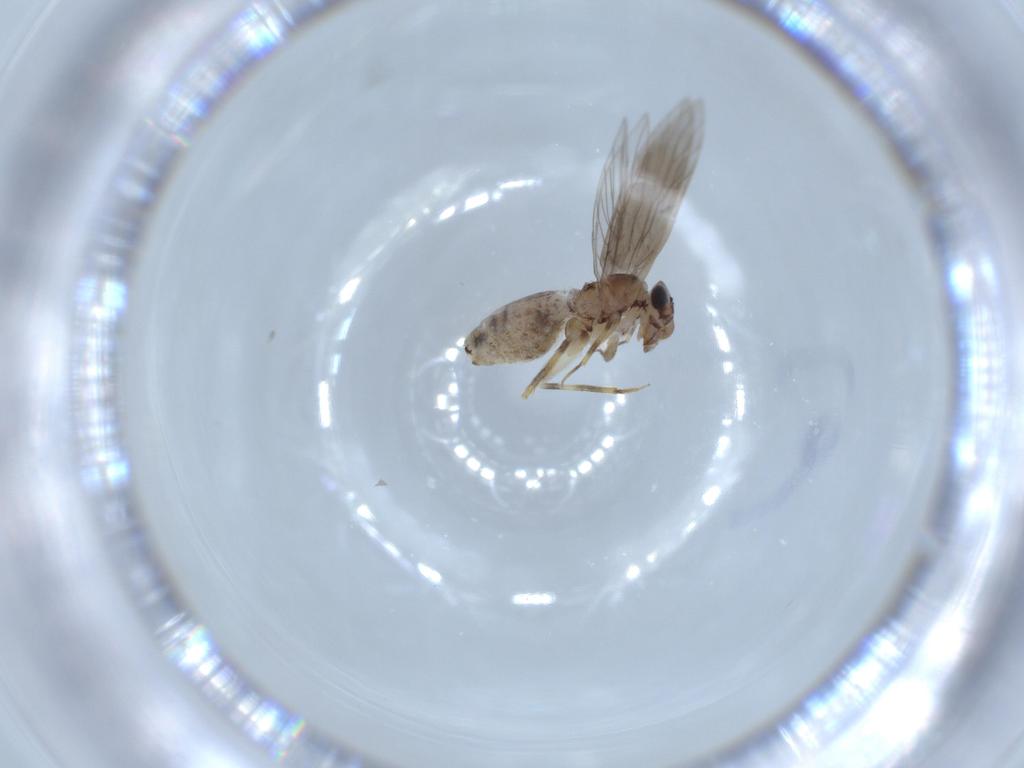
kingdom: Animalia
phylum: Arthropoda
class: Insecta
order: Psocodea
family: Lepidopsocidae
